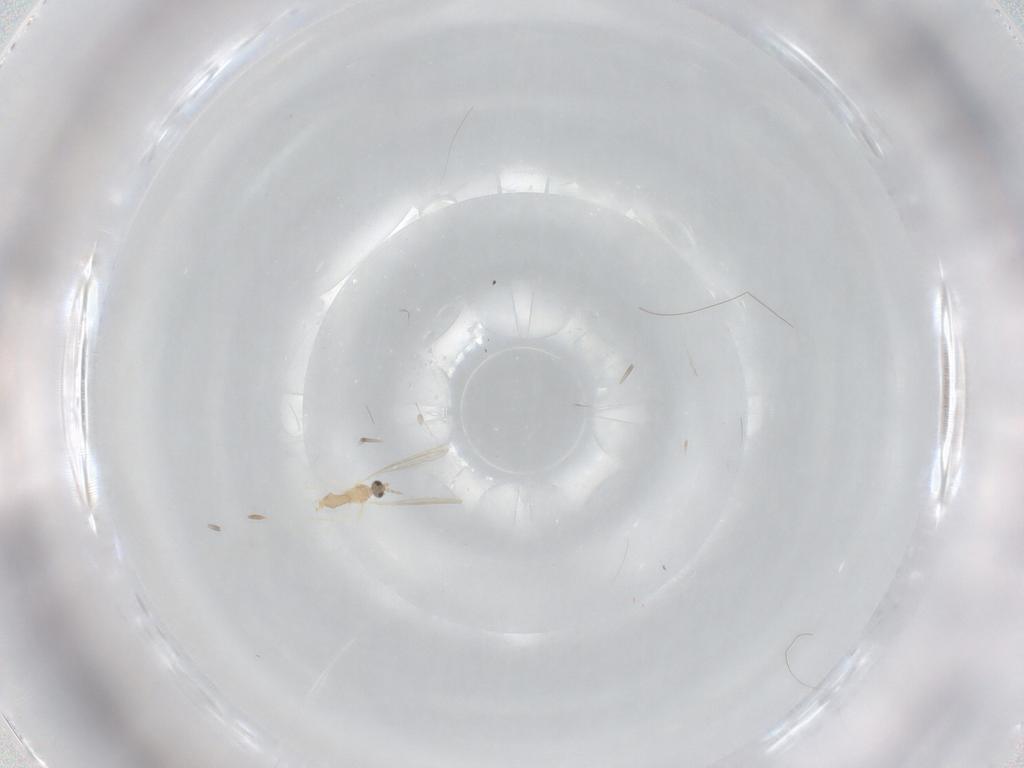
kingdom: Animalia
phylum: Arthropoda
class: Insecta
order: Diptera
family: Cecidomyiidae
